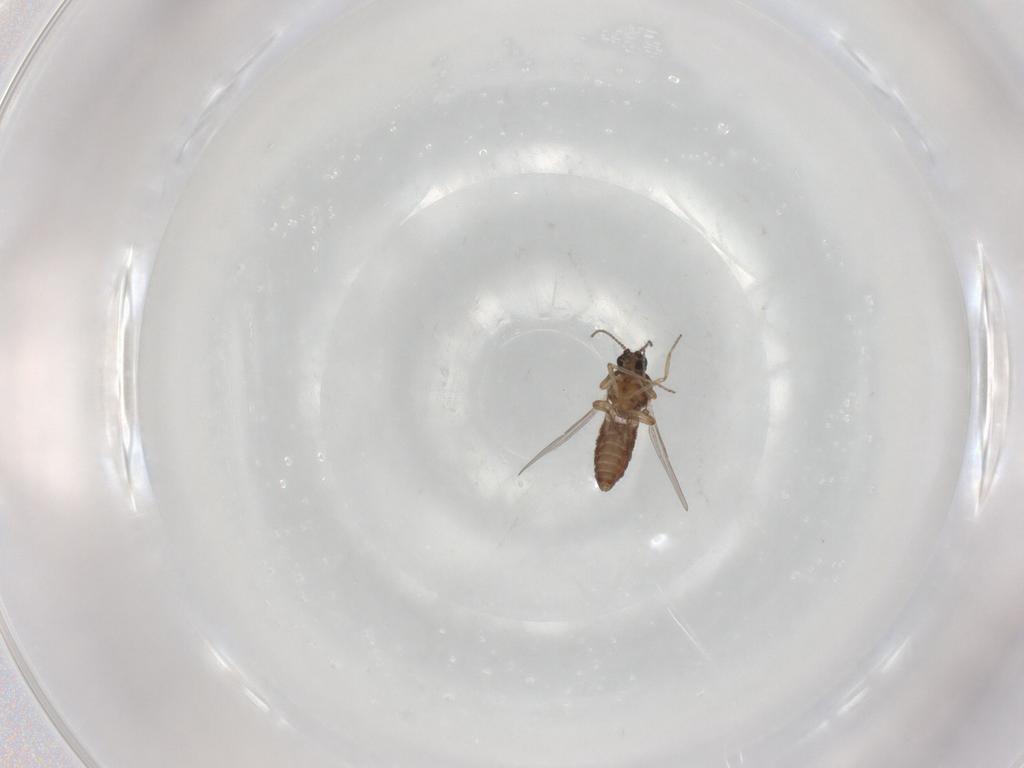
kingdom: Animalia
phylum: Arthropoda
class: Insecta
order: Diptera
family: Ceratopogonidae
